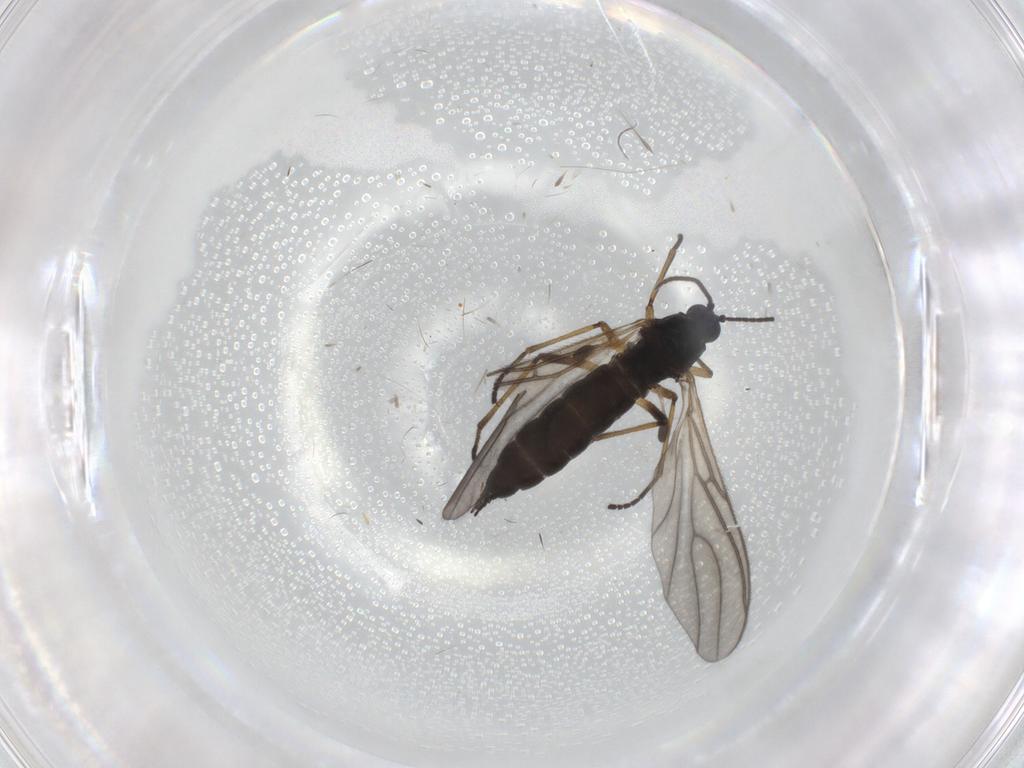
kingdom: Animalia
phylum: Arthropoda
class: Insecta
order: Diptera
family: Sciaridae
